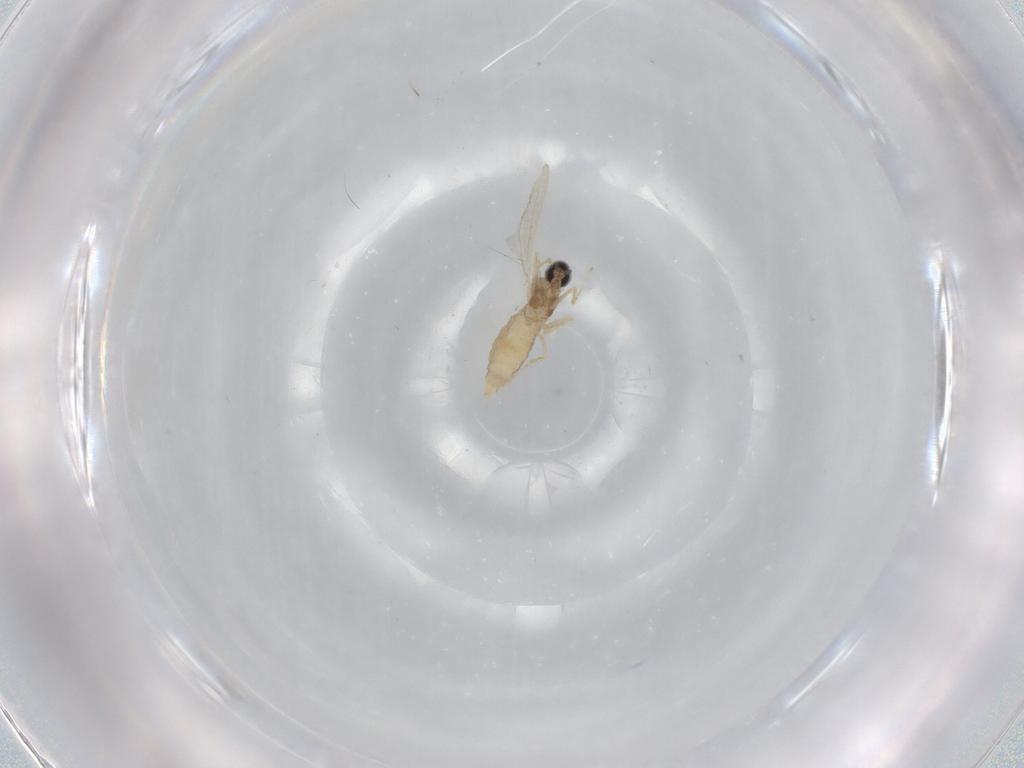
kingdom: Animalia
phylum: Arthropoda
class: Insecta
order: Diptera
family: Cecidomyiidae
